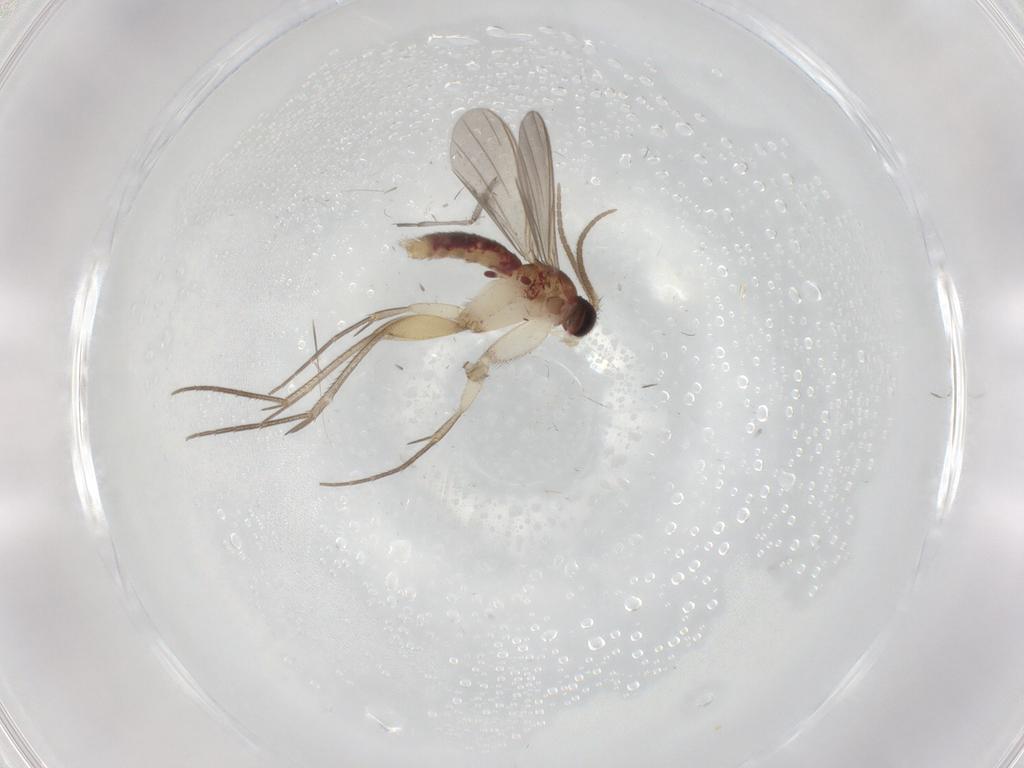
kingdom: Animalia
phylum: Arthropoda
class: Insecta
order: Diptera
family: Mycetophilidae
